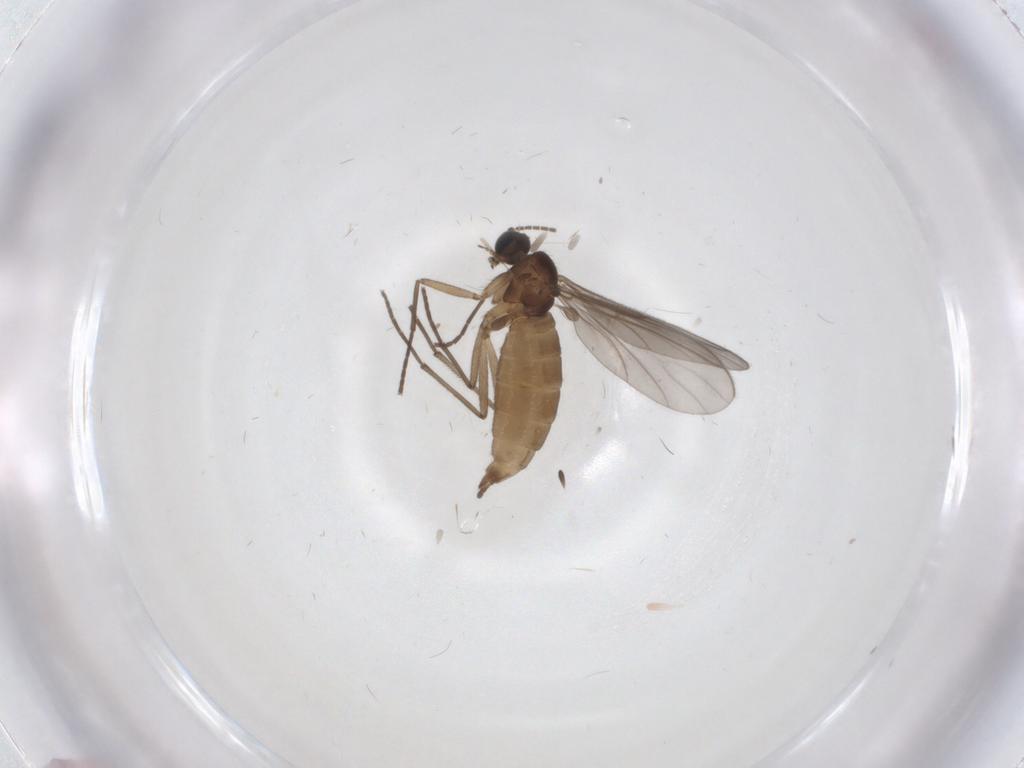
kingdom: Animalia
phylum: Arthropoda
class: Insecta
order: Diptera
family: Sciaridae
